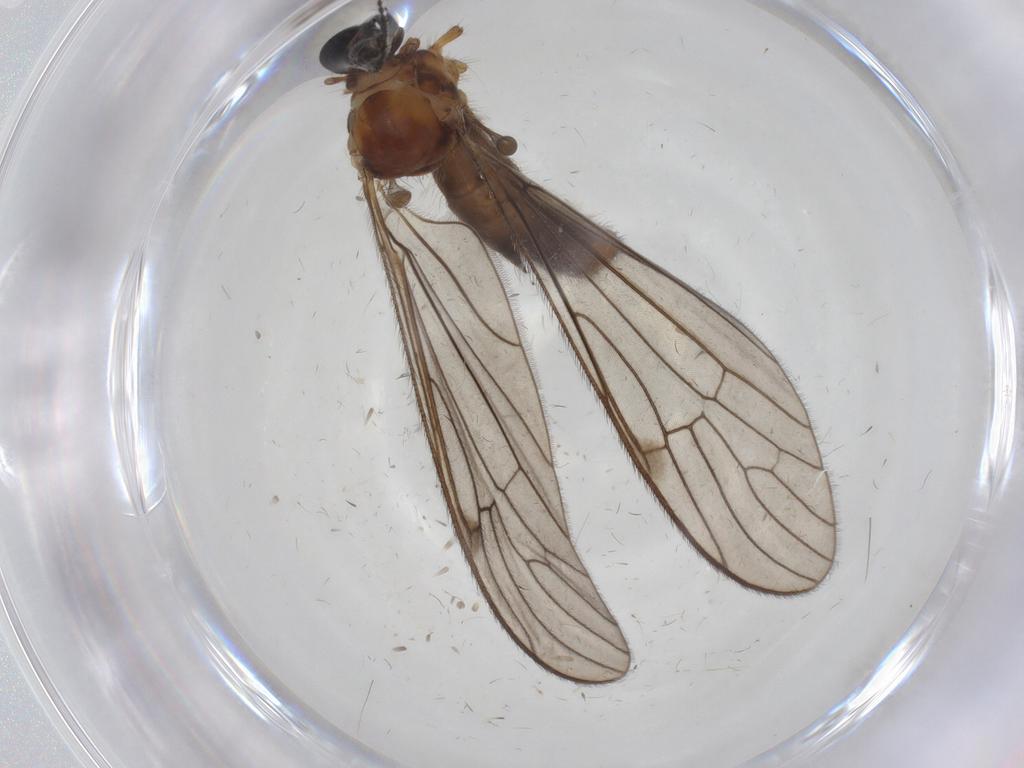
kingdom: Animalia
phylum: Arthropoda
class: Insecta
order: Diptera
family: Limoniidae
